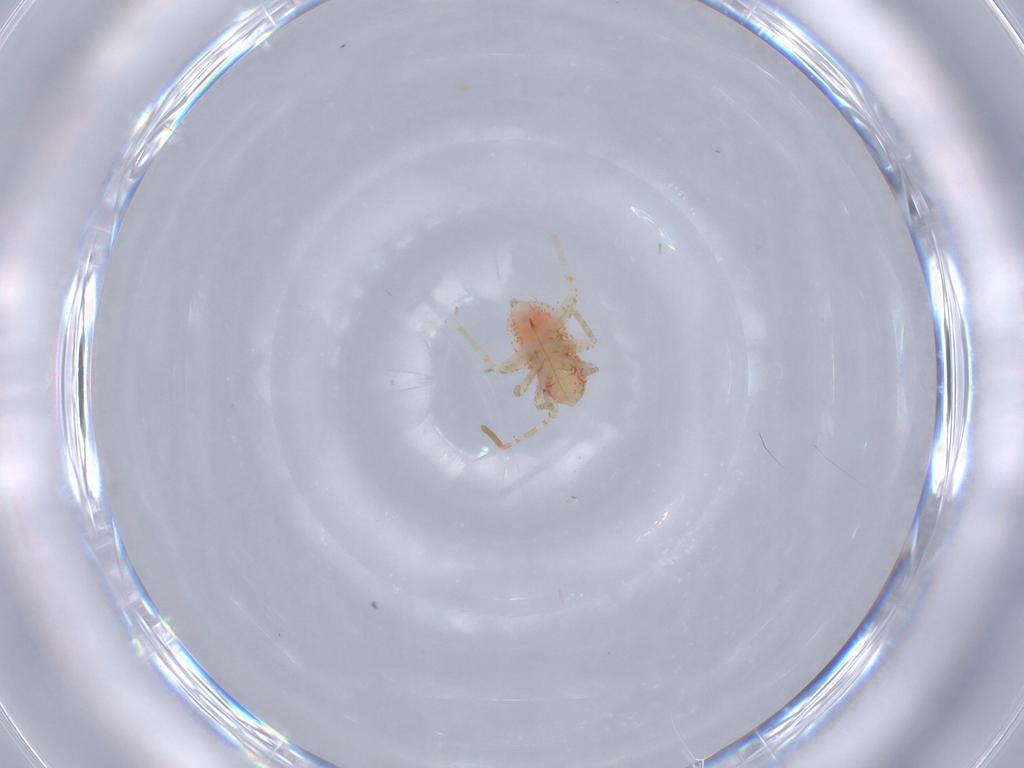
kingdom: Animalia
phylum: Arthropoda
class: Insecta
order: Hemiptera
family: Miridae
